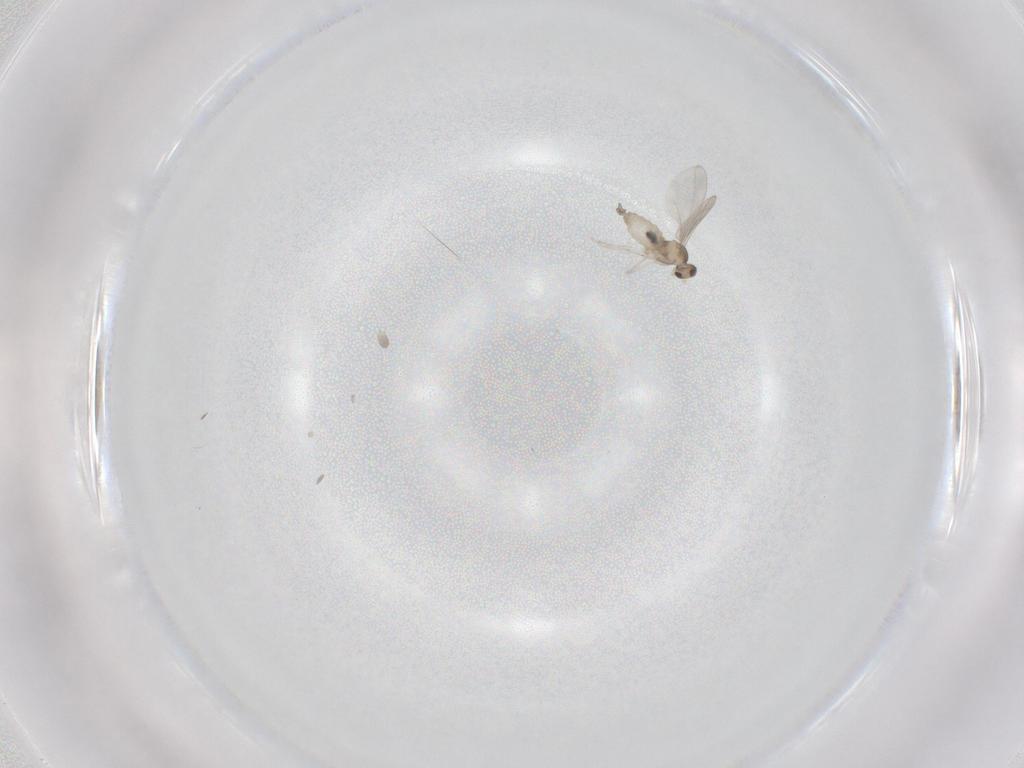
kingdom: Animalia
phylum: Arthropoda
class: Insecta
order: Diptera
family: Cecidomyiidae
